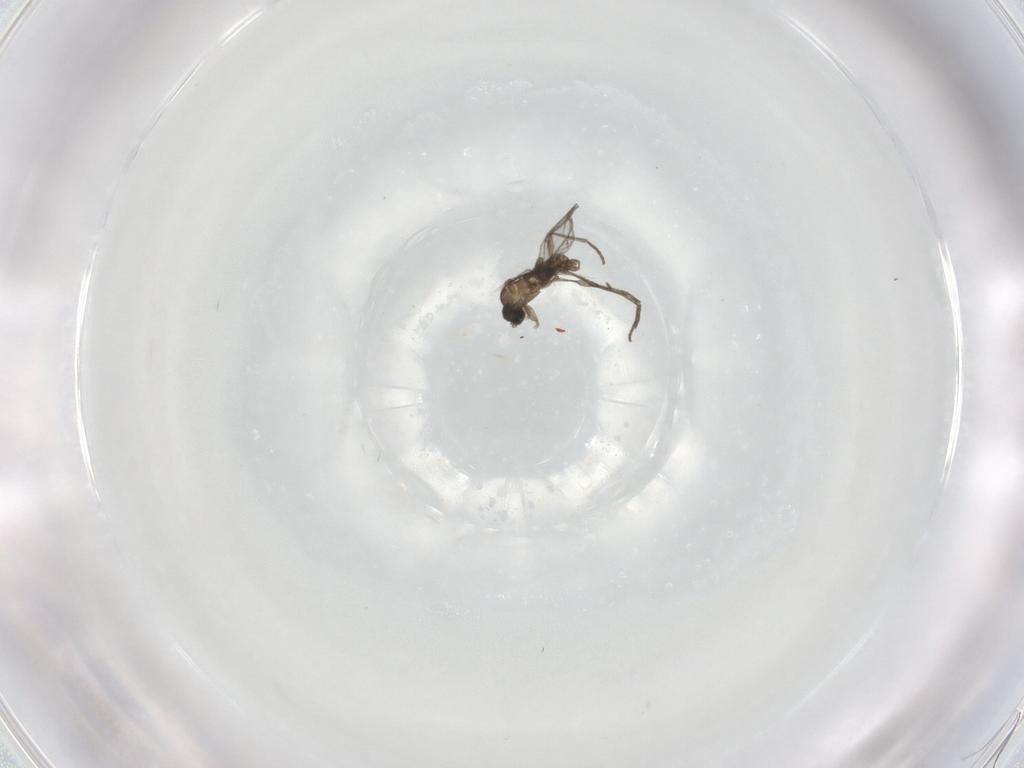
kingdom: Animalia
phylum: Arthropoda
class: Insecta
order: Diptera
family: Sciaridae
